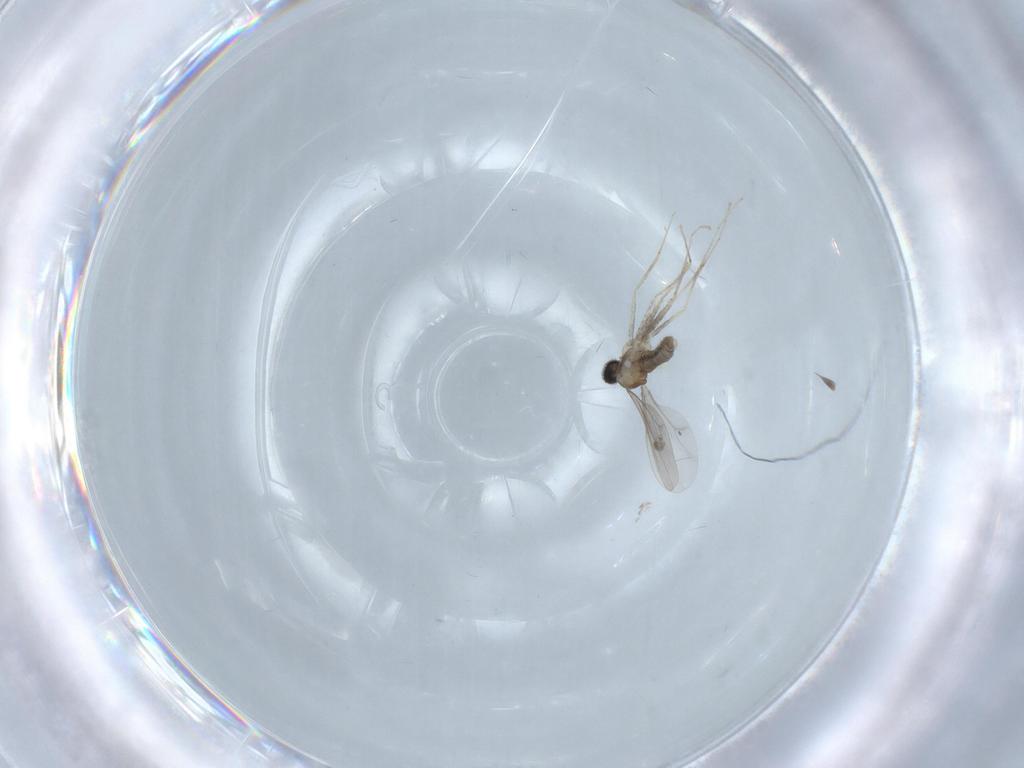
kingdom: Animalia
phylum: Arthropoda
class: Insecta
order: Diptera
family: Cecidomyiidae
